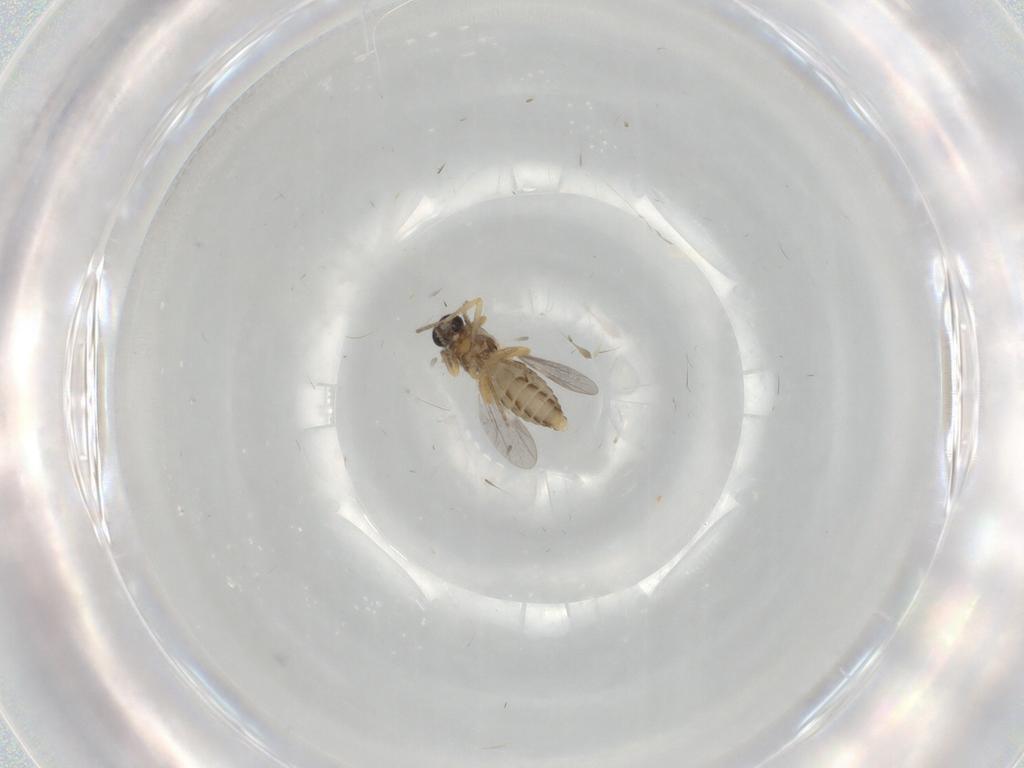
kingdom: Animalia
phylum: Arthropoda
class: Insecta
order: Diptera
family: Ceratopogonidae
